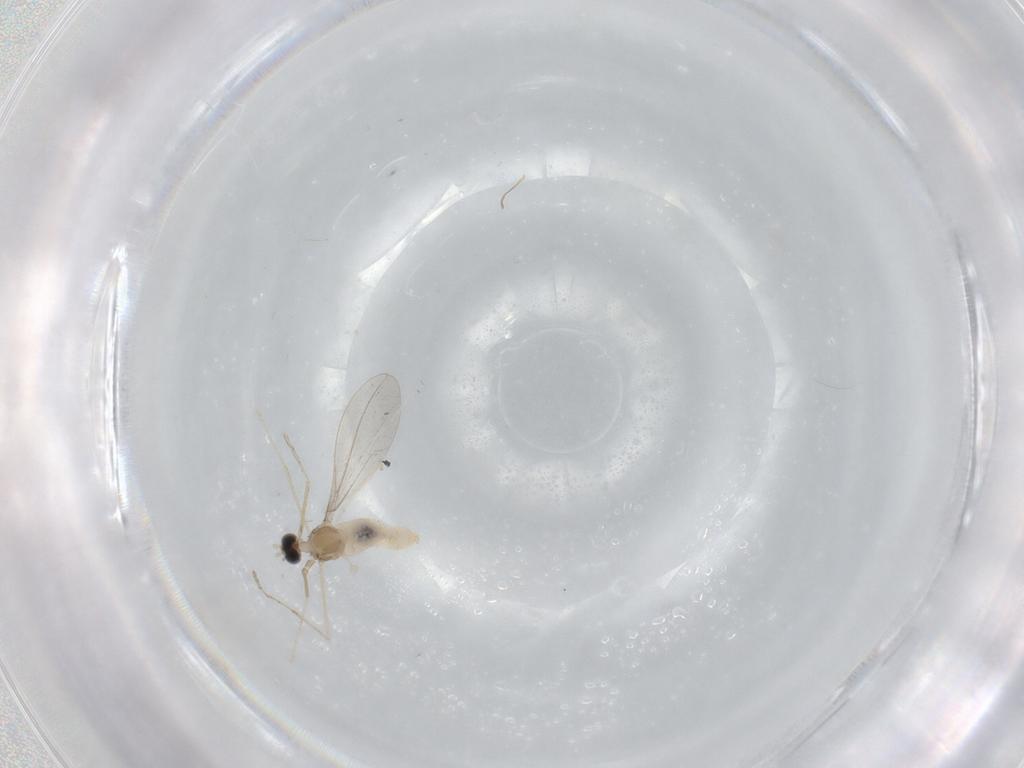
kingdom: Animalia
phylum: Arthropoda
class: Insecta
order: Diptera
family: Cecidomyiidae
